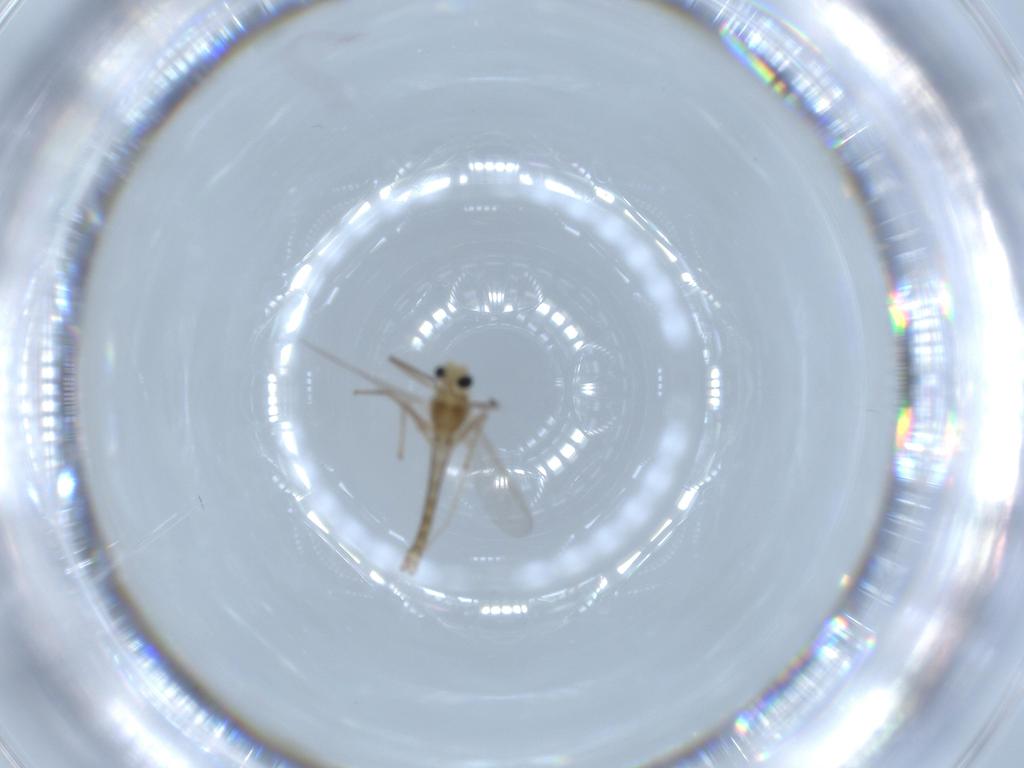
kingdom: Animalia
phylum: Arthropoda
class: Insecta
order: Diptera
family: Chironomidae
